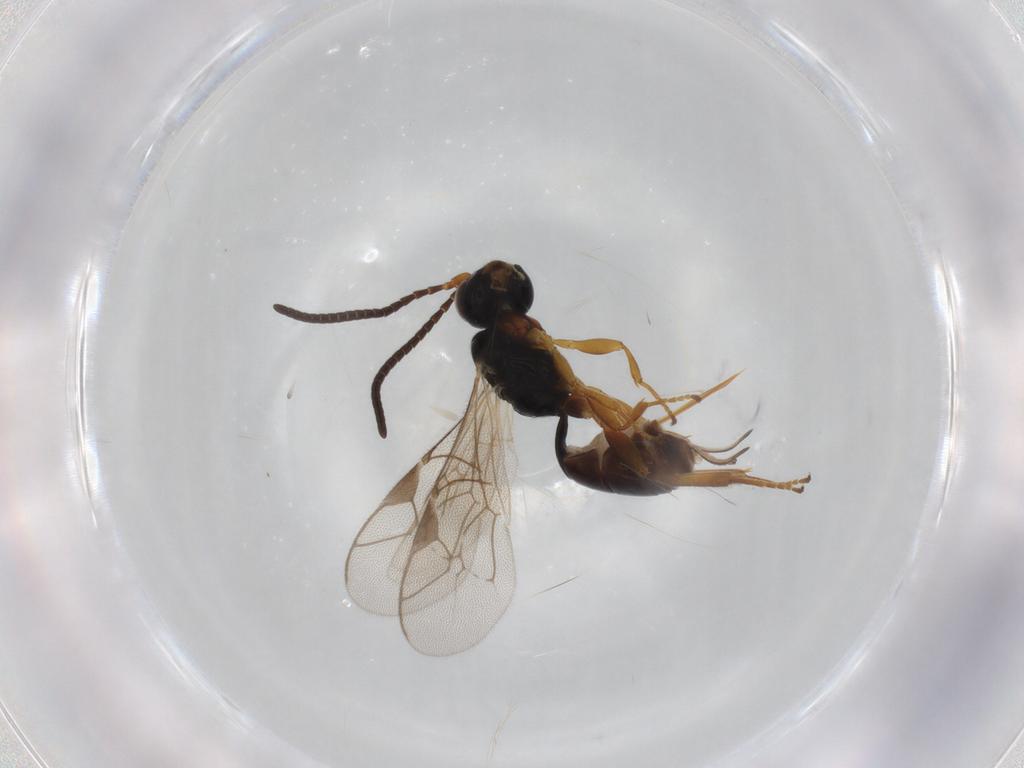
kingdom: Animalia
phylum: Arthropoda
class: Insecta
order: Hymenoptera
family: Ichneumonidae
